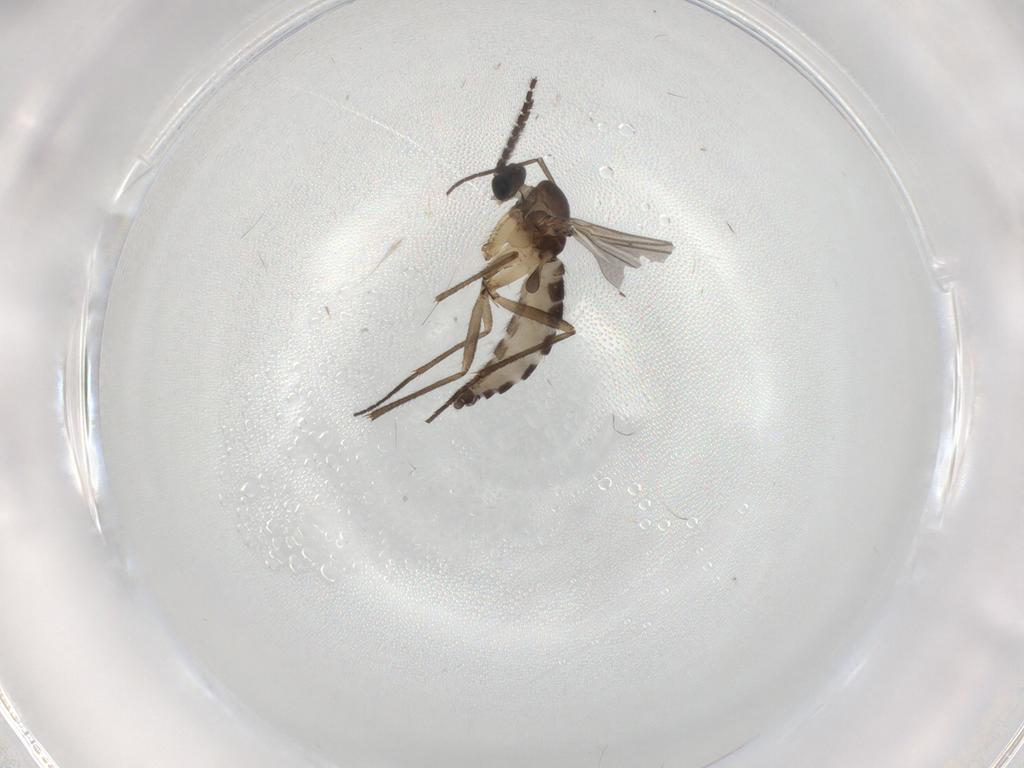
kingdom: Animalia
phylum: Arthropoda
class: Insecta
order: Diptera
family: Sciaridae
